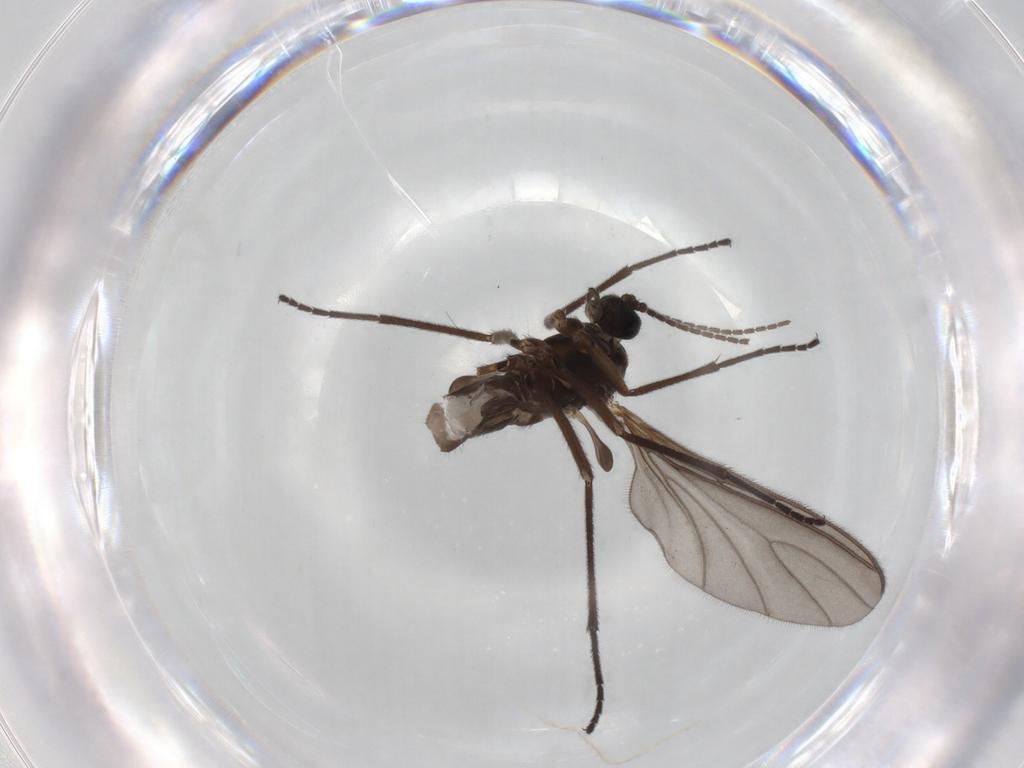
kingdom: Animalia
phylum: Arthropoda
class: Insecta
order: Diptera
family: Sciaridae
